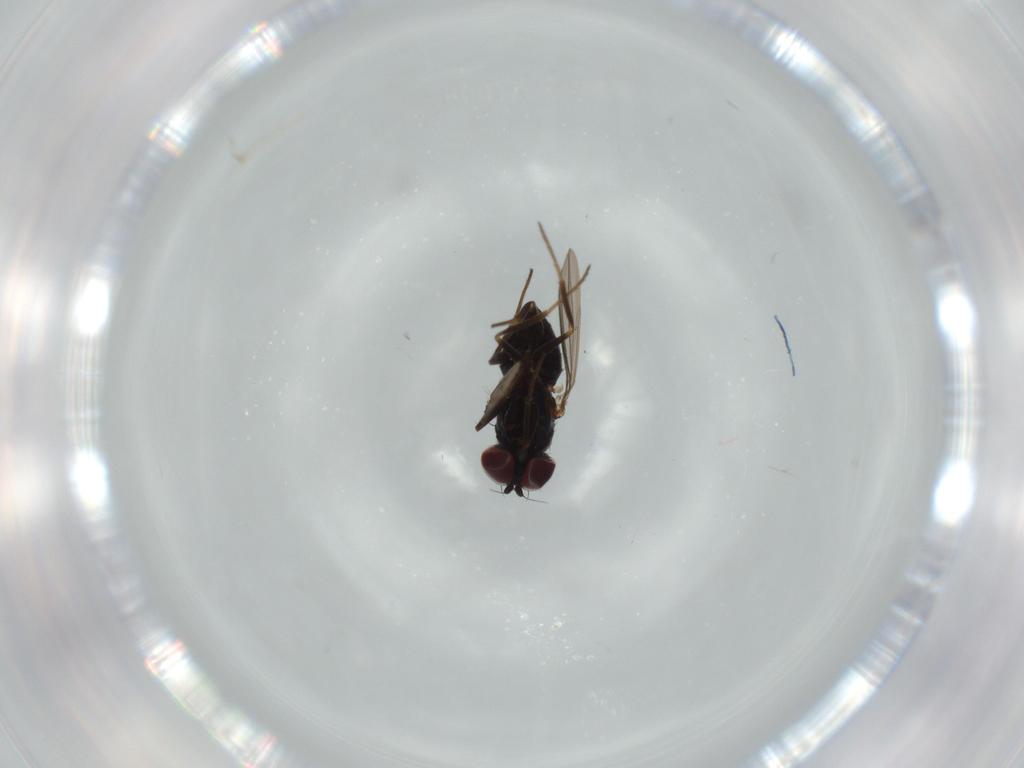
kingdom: Animalia
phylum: Arthropoda
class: Insecta
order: Diptera
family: Dolichopodidae
